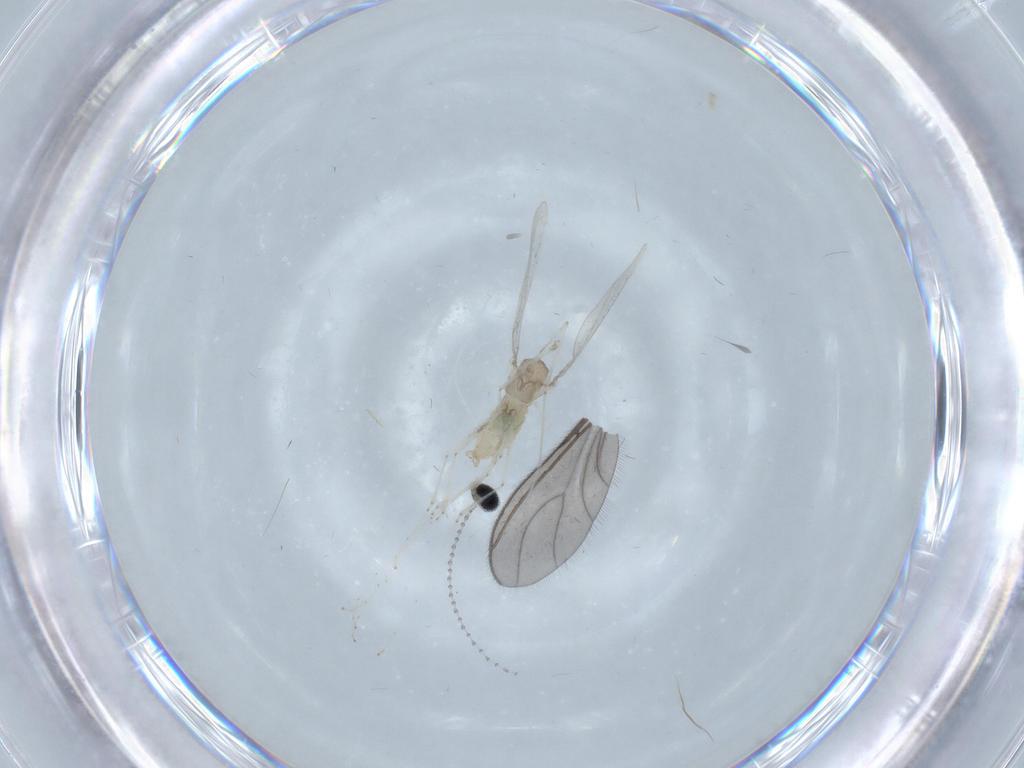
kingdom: Animalia
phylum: Arthropoda
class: Insecta
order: Diptera
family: Cecidomyiidae
